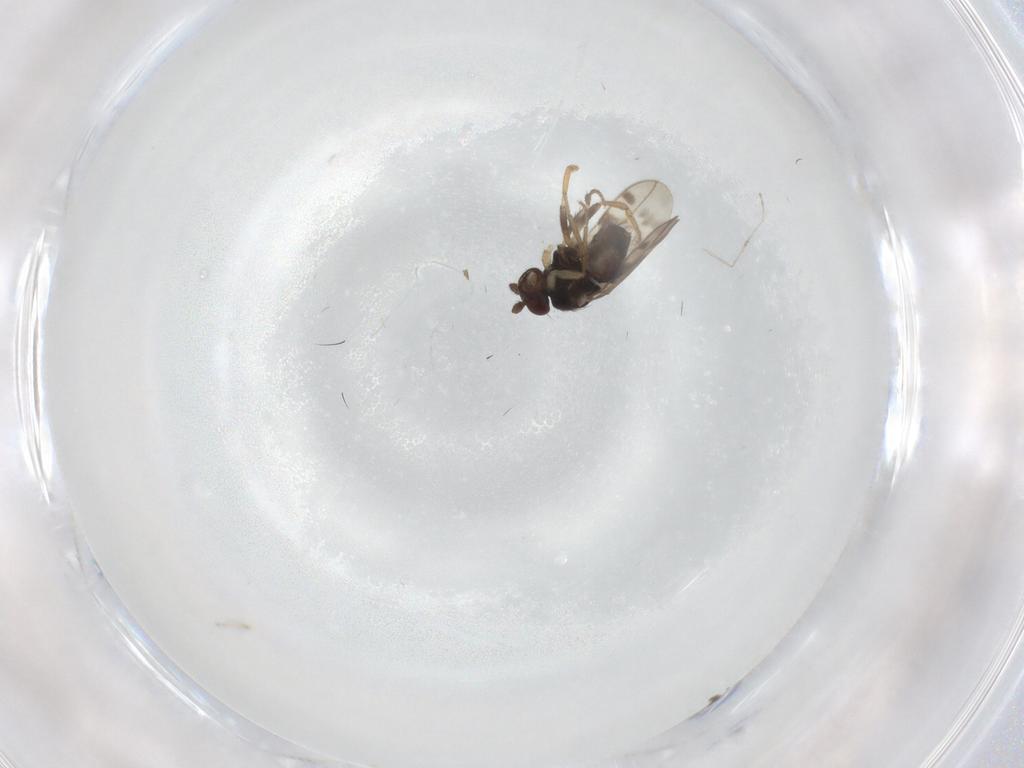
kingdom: Animalia
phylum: Arthropoda
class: Insecta
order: Diptera
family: Sphaeroceridae
